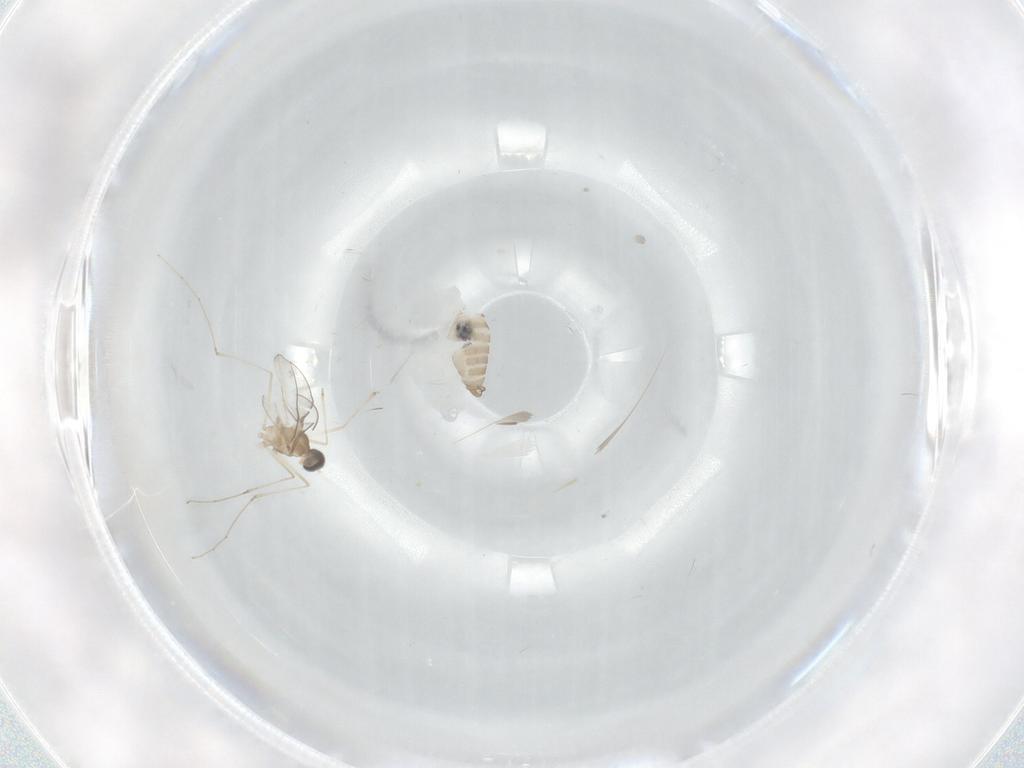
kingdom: Animalia
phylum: Arthropoda
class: Insecta
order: Diptera
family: Cecidomyiidae
